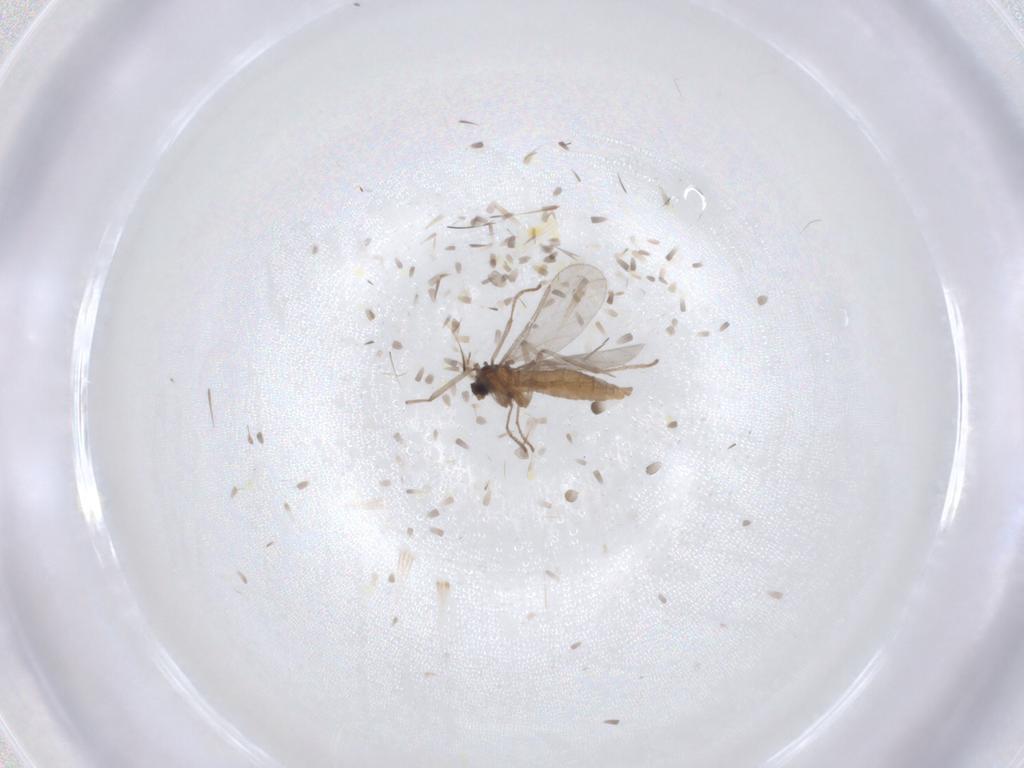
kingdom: Animalia
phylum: Arthropoda
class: Insecta
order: Diptera
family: Cecidomyiidae
